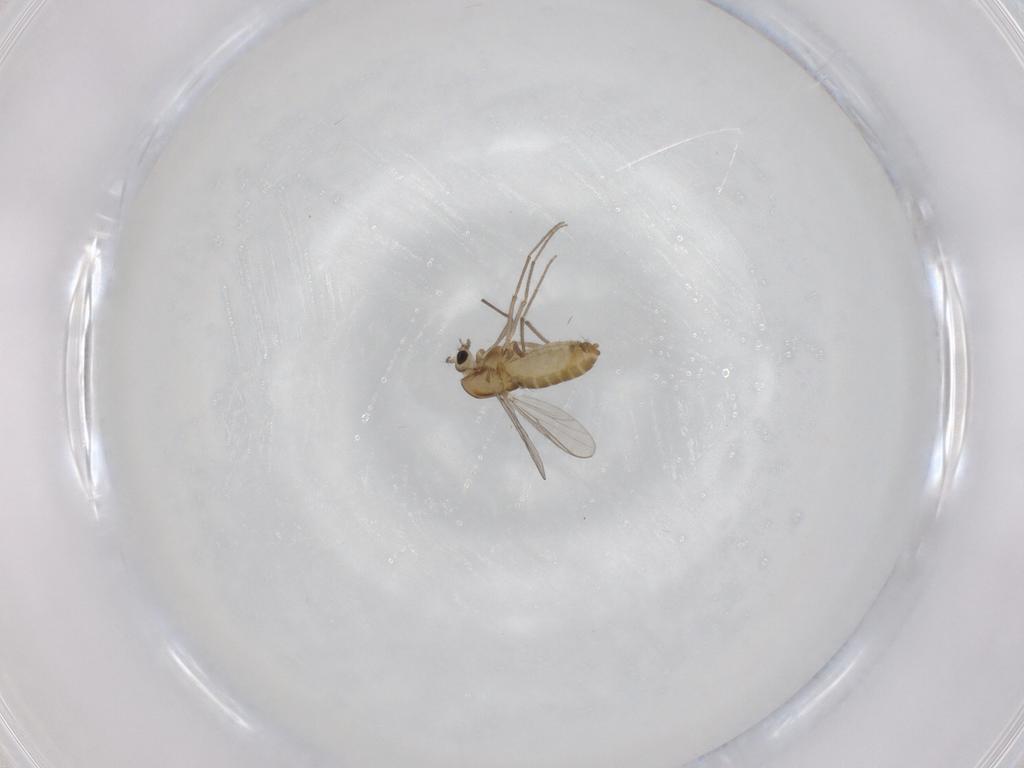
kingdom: Animalia
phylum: Arthropoda
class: Insecta
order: Diptera
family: Chironomidae
